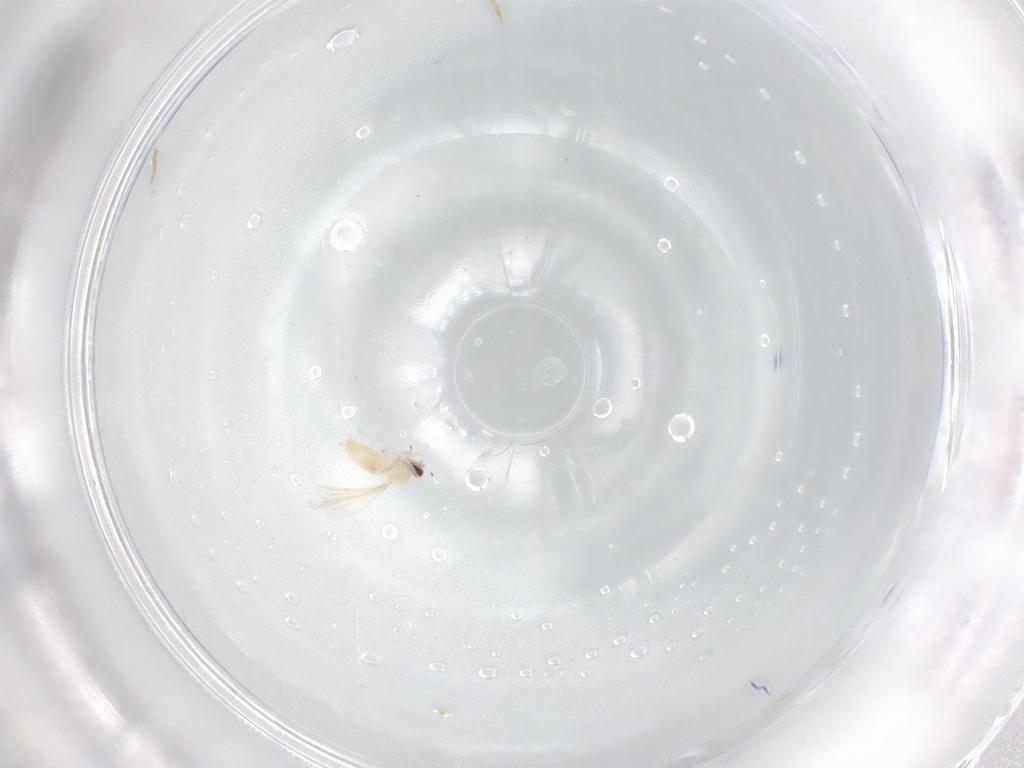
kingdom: Animalia
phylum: Arthropoda
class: Insecta
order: Diptera
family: Cecidomyiidae
